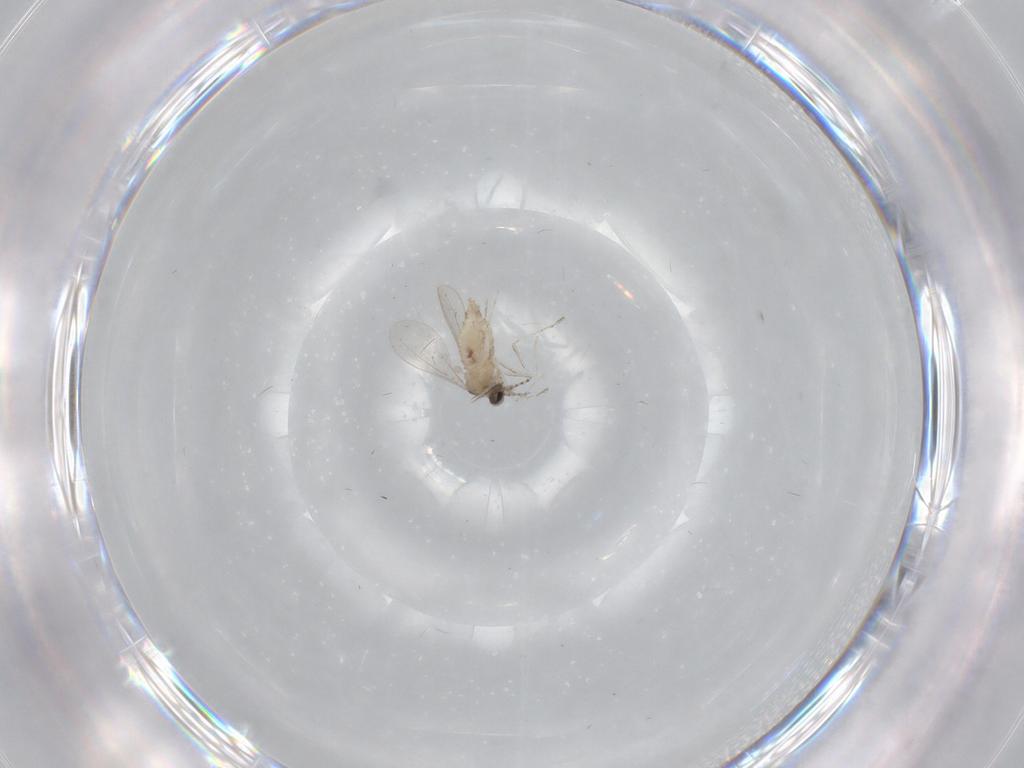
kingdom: Animalia
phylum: Arthropoda
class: Insecta
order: Diptera
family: Cecidomyiidae
